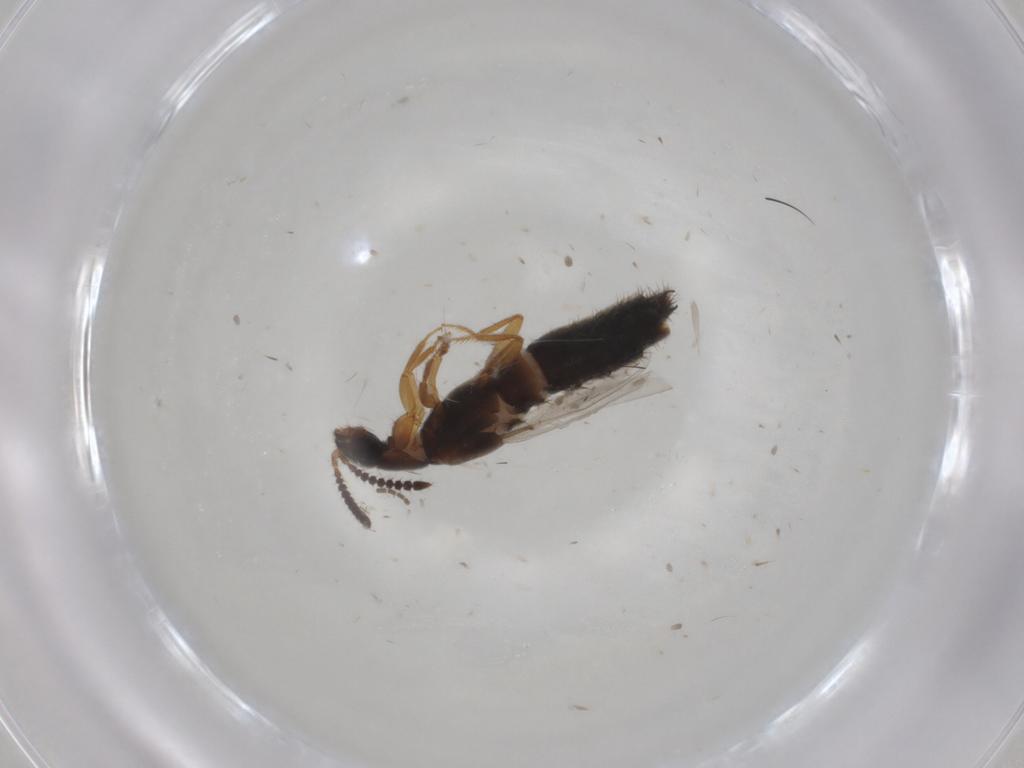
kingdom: Animalia
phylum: Arthropoda
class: Insecta
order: Coleoptera
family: Staphylinidae
